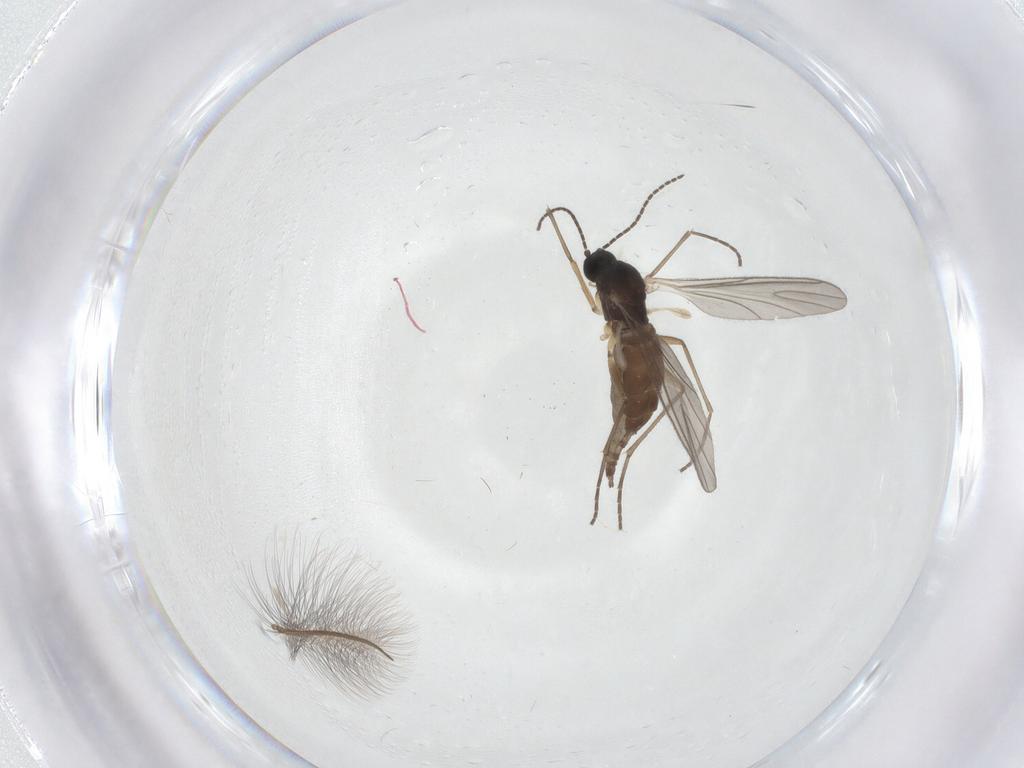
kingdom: Animalia
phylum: Arthropoda
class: Insecta
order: Diptera
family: Sciaridae
